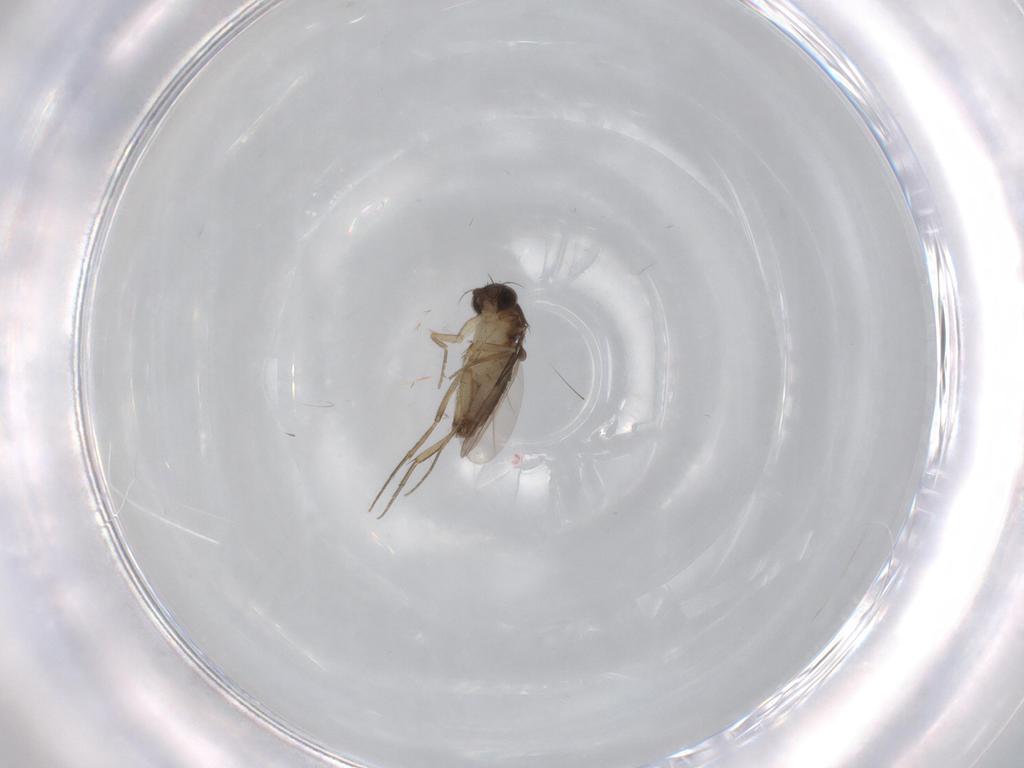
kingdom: Animalia
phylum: Arthropoda
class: Insecta
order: Diptera
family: Phoridae
